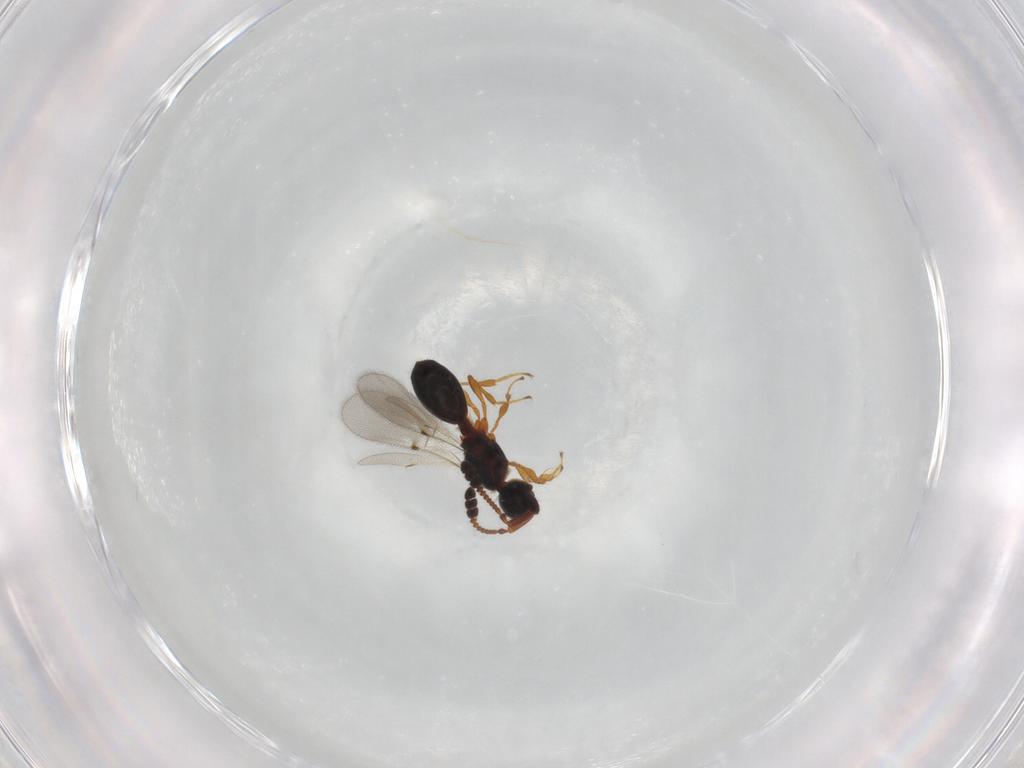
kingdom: Animalia
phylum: Arthropoda
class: Insecta
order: Hymenoptera
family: Diapriidae
